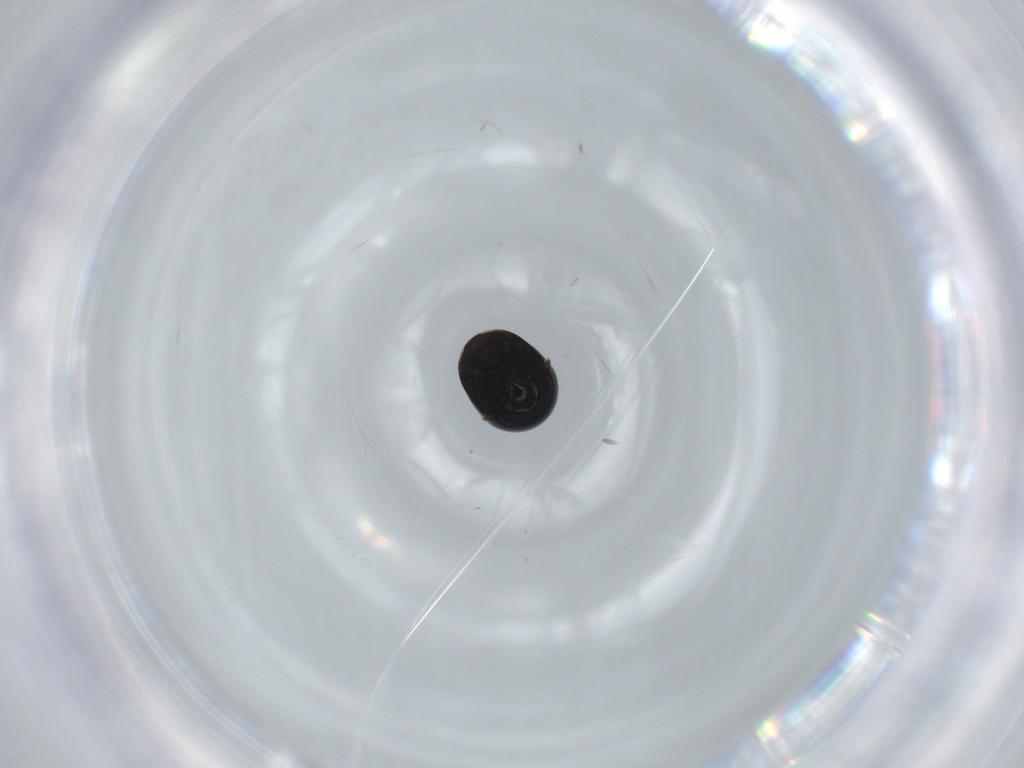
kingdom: Animalia
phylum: Arthropoda
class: Insecta
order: Coleoptera
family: Cybocephalidae
